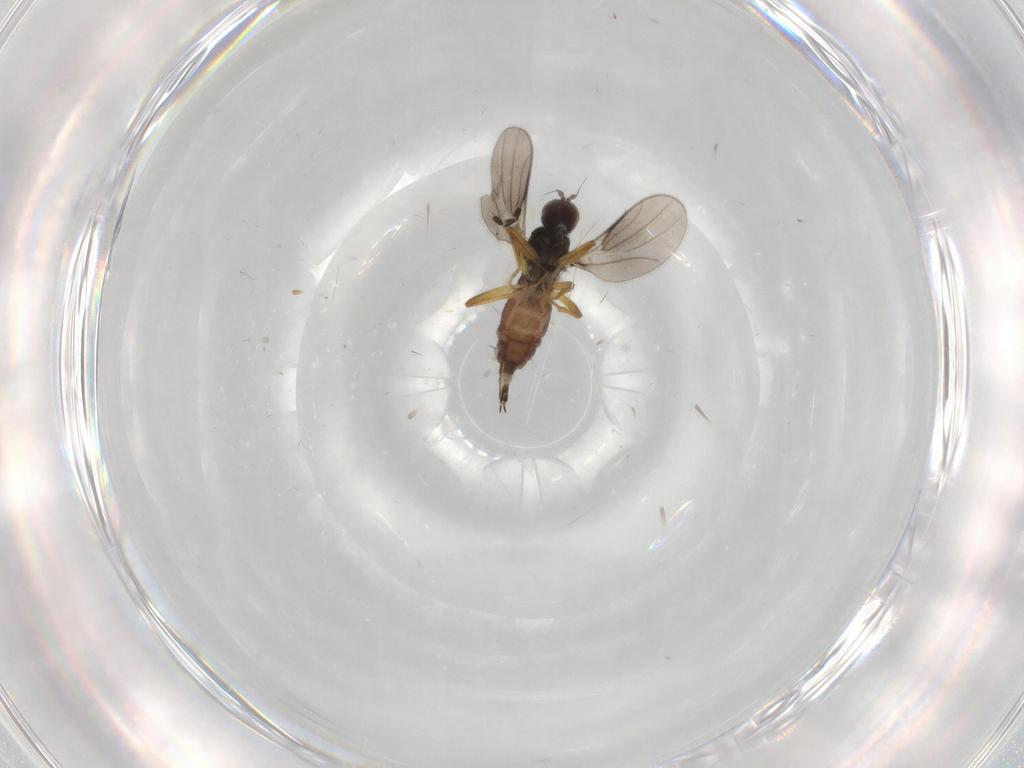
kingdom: Animalia
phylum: Arthropoda
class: Insecta
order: Diptera
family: Hybotidae
